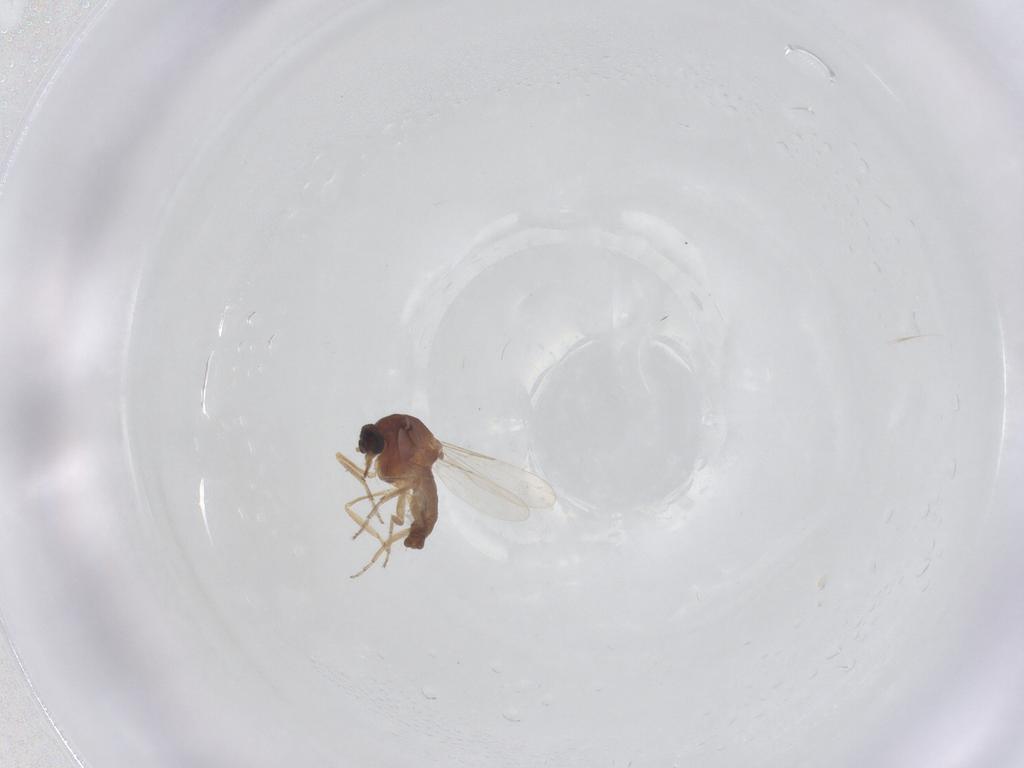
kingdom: Animalia
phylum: Arthropoda
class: Insecta
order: Diptera
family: Ceratopogonidae
